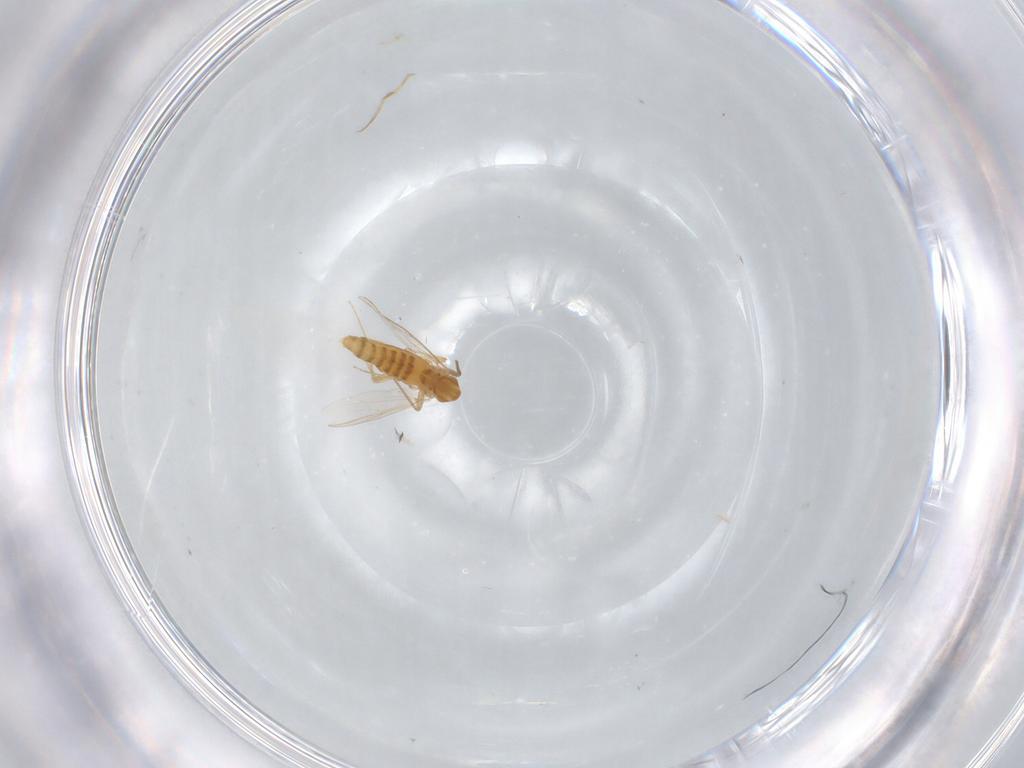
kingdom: Animalia
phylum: Arthropoda
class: Insecta
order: Diptera
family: Chironomidae
